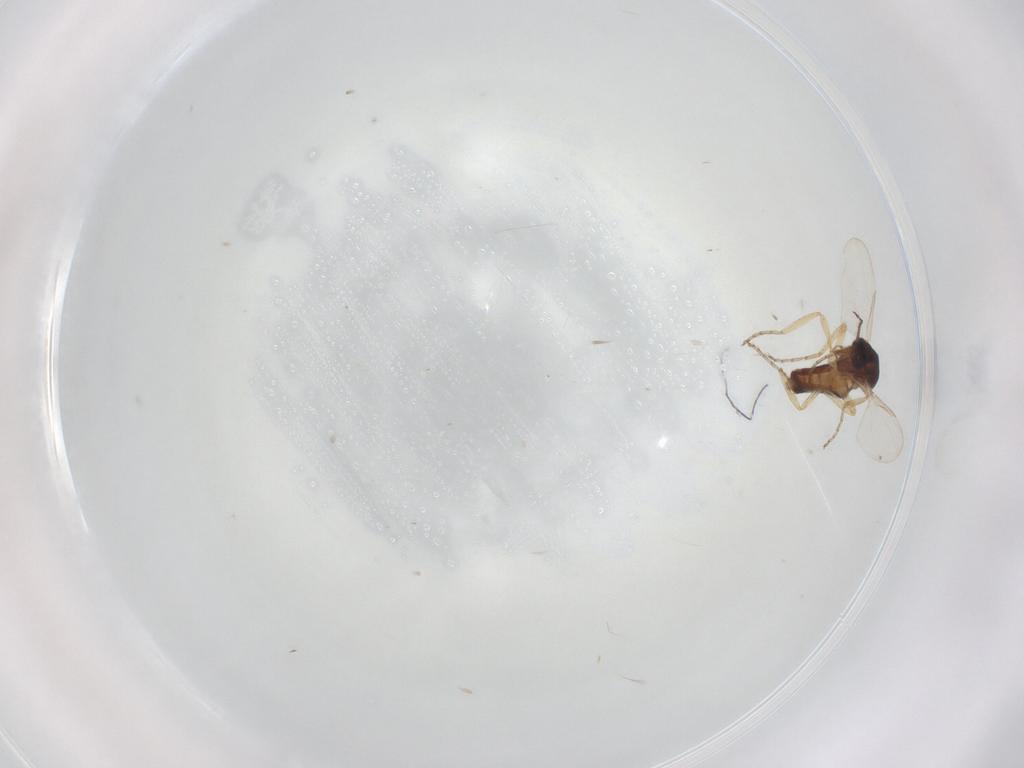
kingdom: Animalia
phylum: Arthropoda
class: Insecta
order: Diptera
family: Ceratopogonidae
